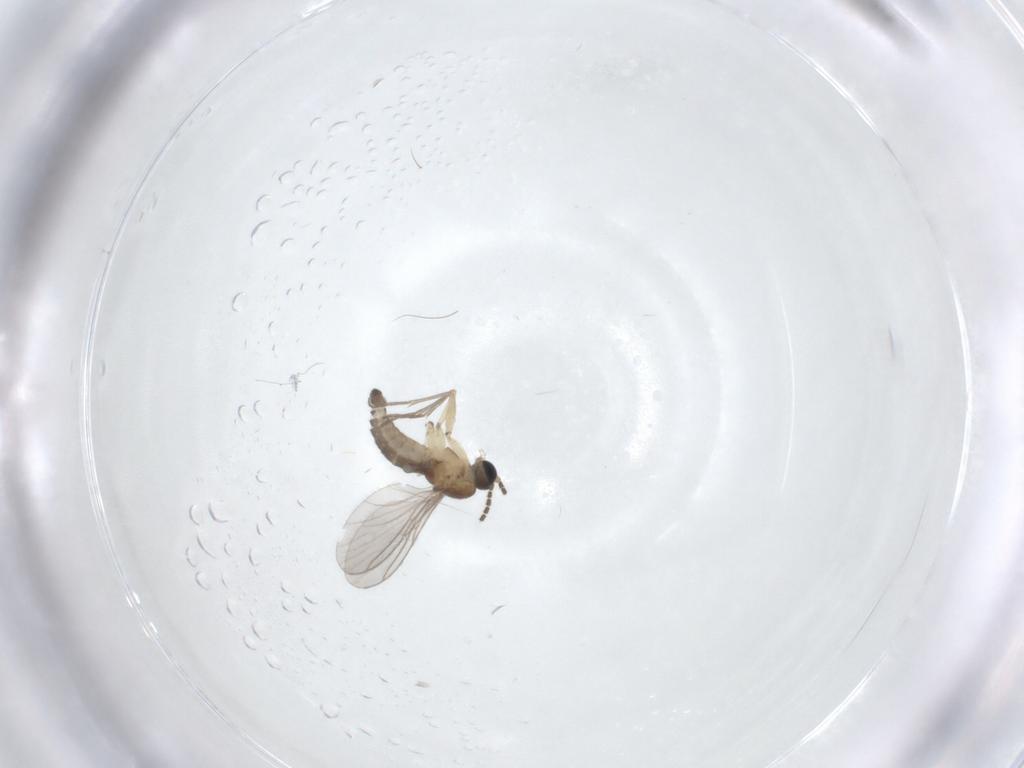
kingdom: Animalia
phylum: Arthropoda
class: Insecta
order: Diptera
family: Sciaridae
